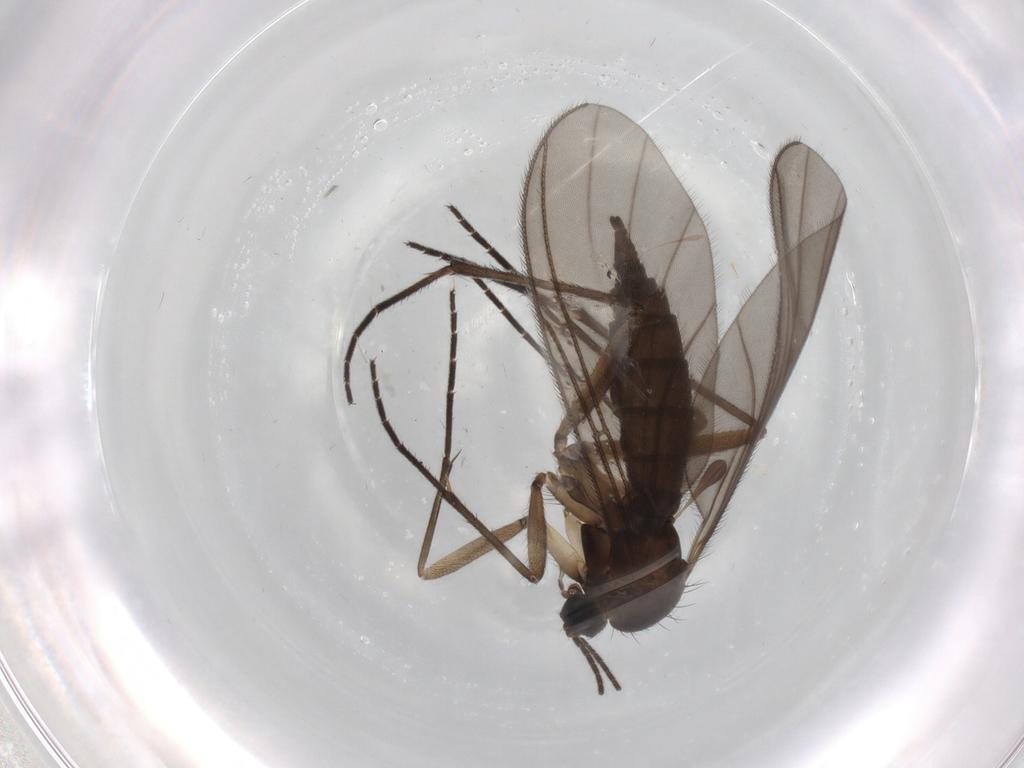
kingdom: Animalia
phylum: Arthropoda
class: Insecta
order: Diptera
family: Sciaridae
